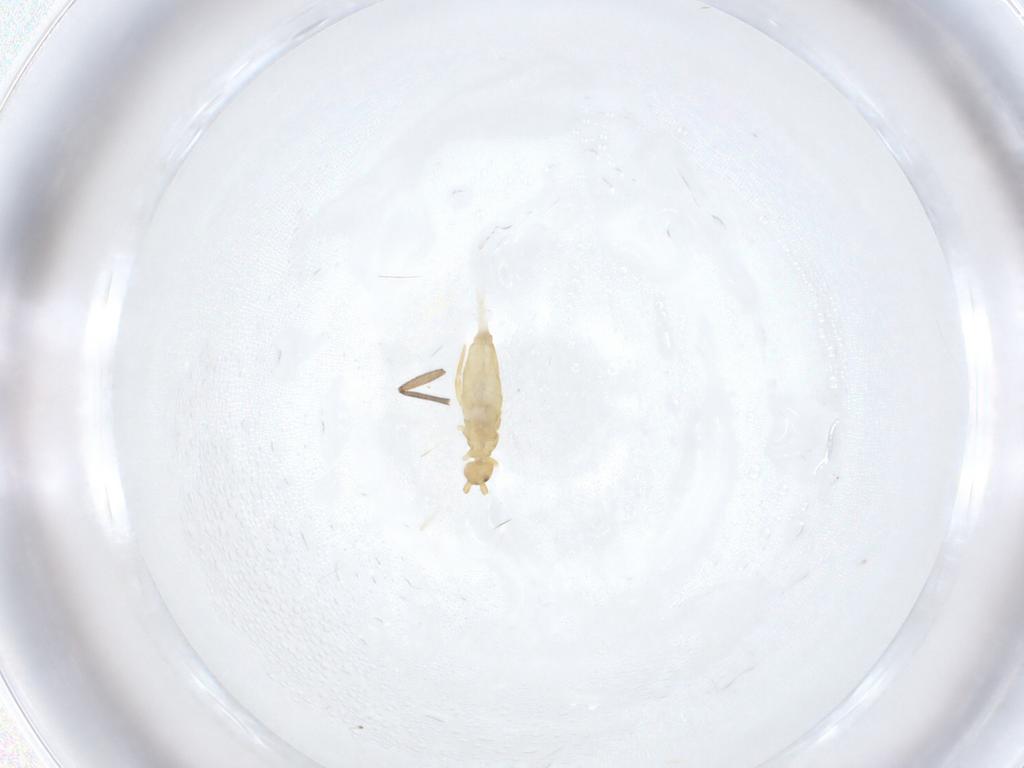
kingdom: Animalia
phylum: Arthropoda
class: Collembola
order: Entomobryomorpha
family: Entomobryidae
